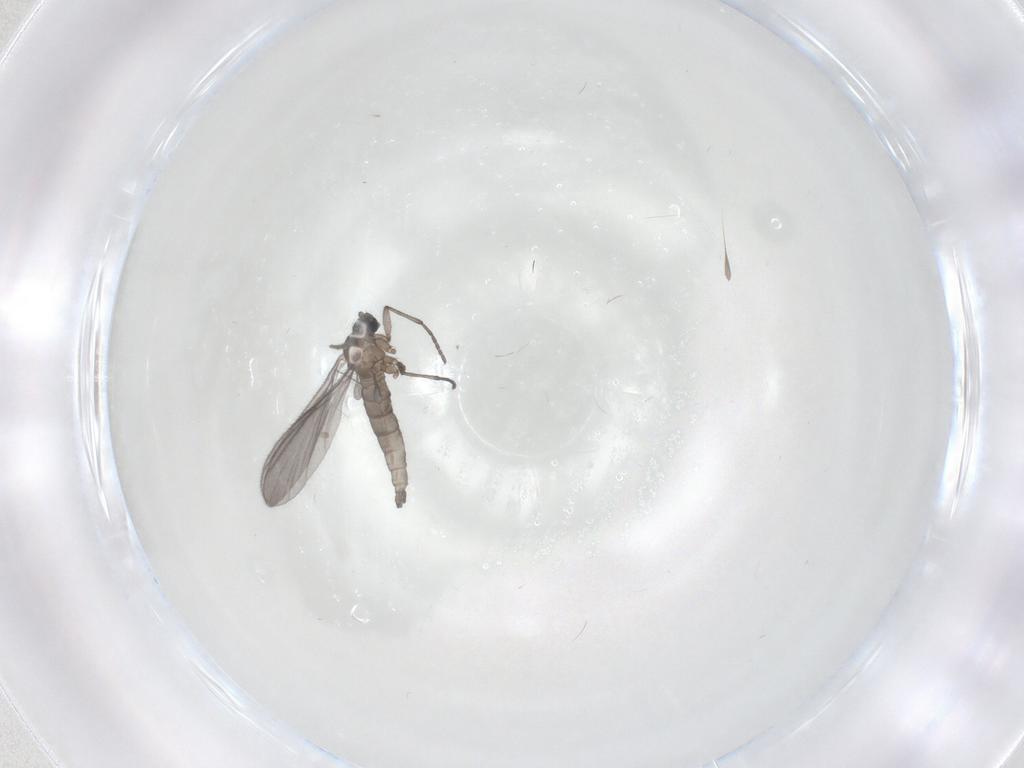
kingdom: Animalia
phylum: Arthropoda
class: Insecta
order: Diptera
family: Sciaridae
